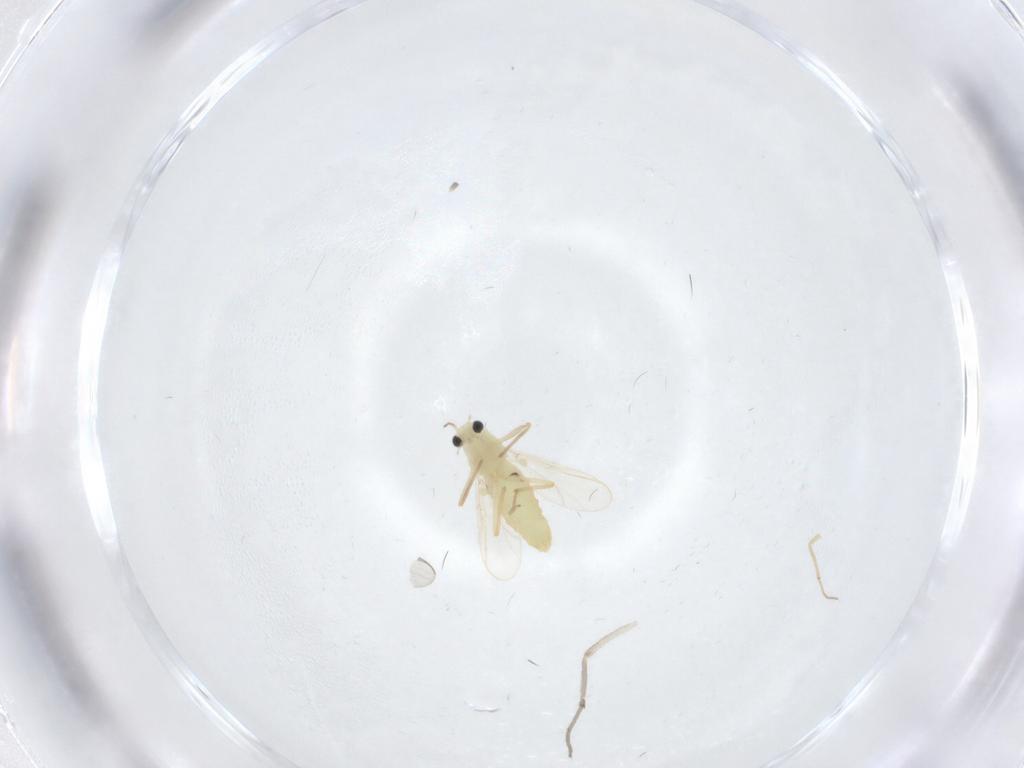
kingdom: Animalia
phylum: Arthropoda
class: Insecta
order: Diptera
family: Chironomidae
